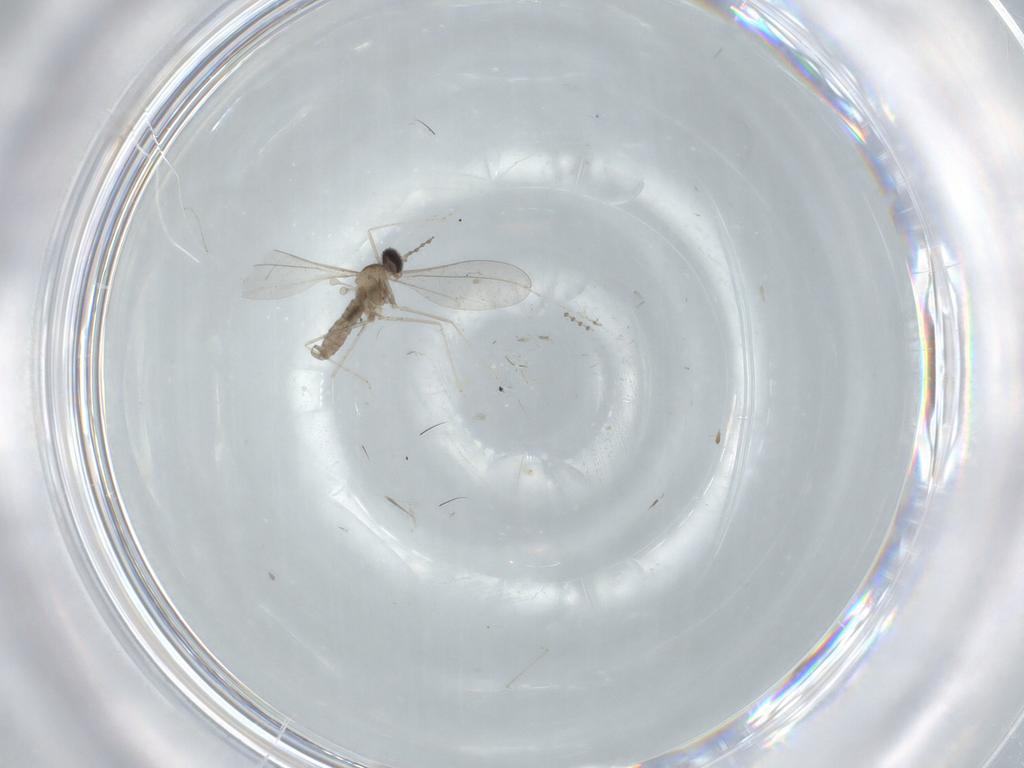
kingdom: Animalia
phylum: Arthropoda
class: Insecta
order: Diptera
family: Cecidomyiidae
